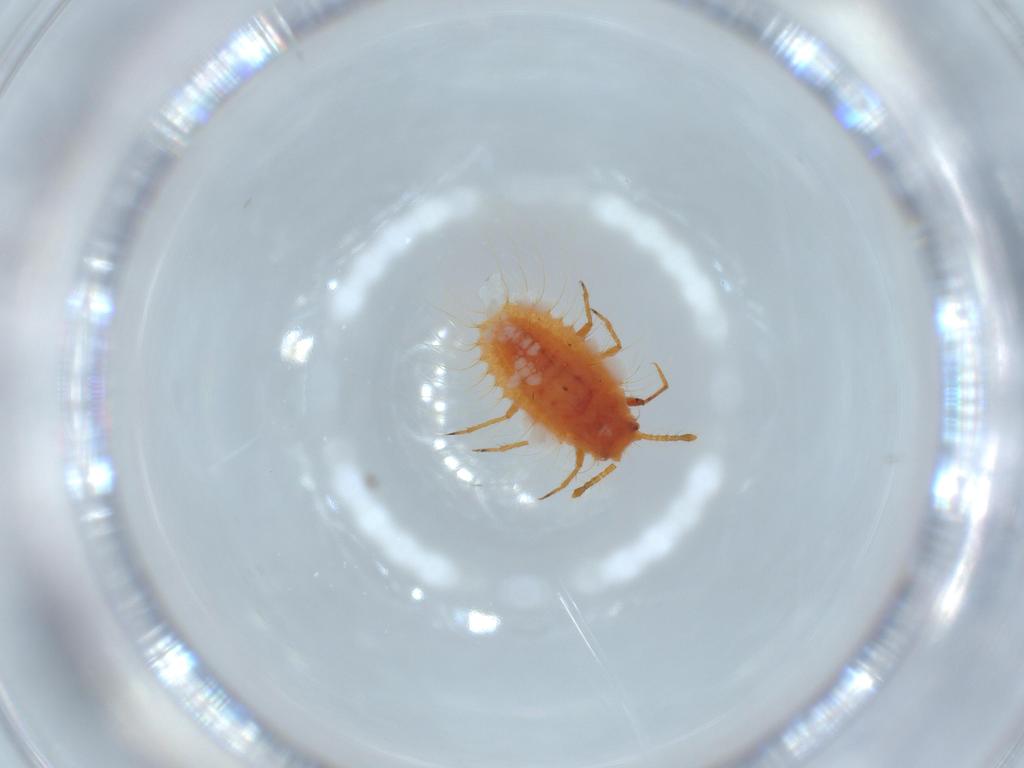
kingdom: Animalia
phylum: Arthropoda
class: Insecta
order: Hemiptera
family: Coccoidea_incertae_sedis
